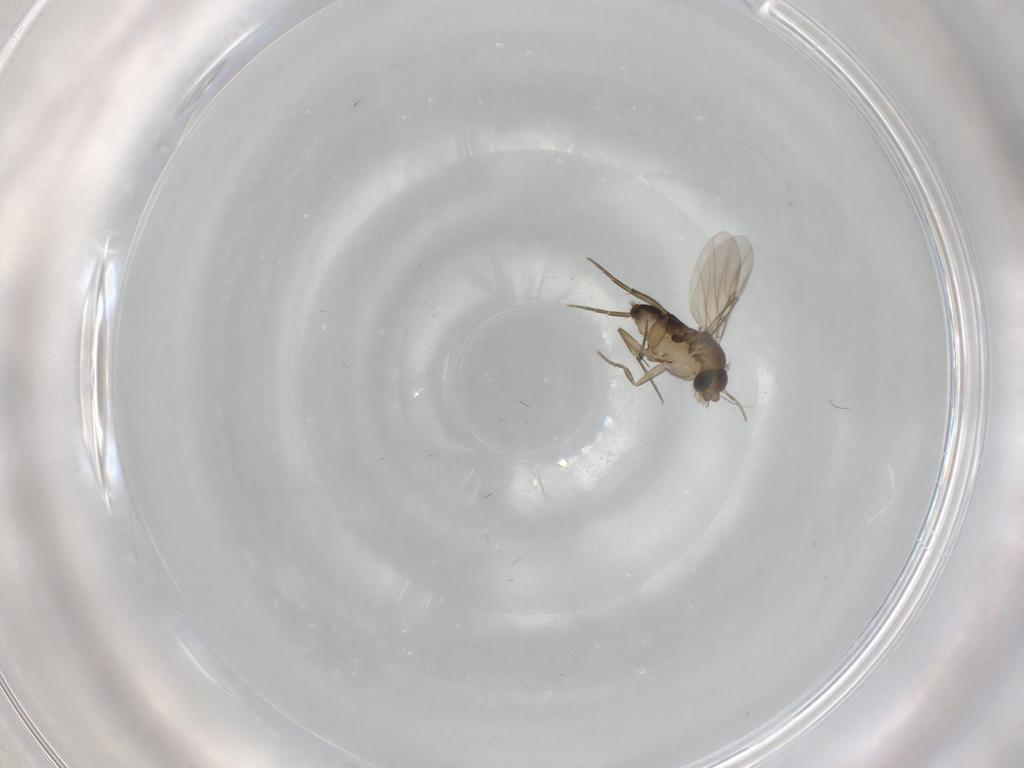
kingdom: Animalia
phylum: Arthropoda
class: Insecta
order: Diptera
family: Phoridae
